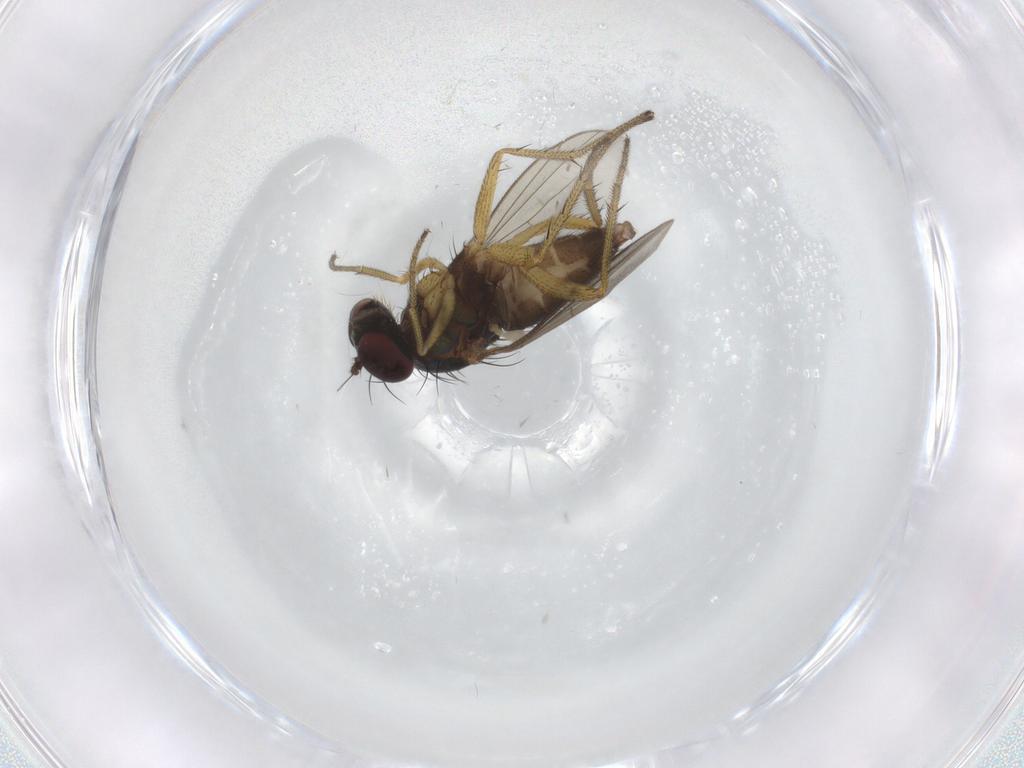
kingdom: Animalia
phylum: Arthropoda
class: Insecta
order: Diptera
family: Dolichopodidae
